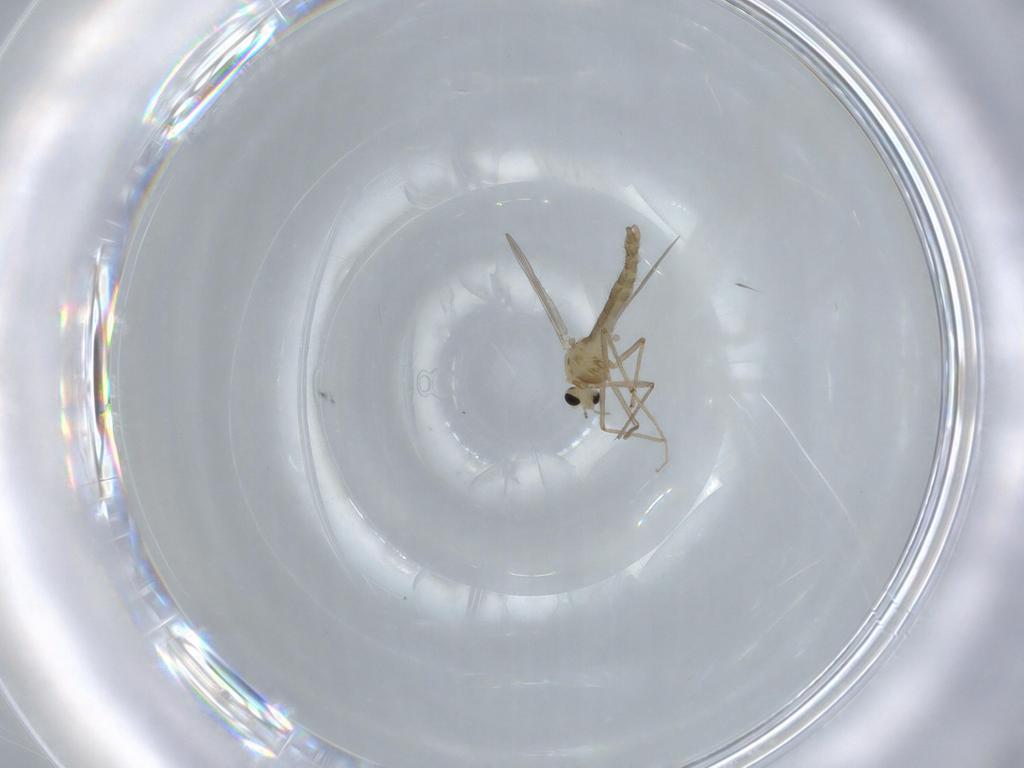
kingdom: Animalia
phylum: Arthropoda
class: Insecta
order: Diptera
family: Chironomidae
